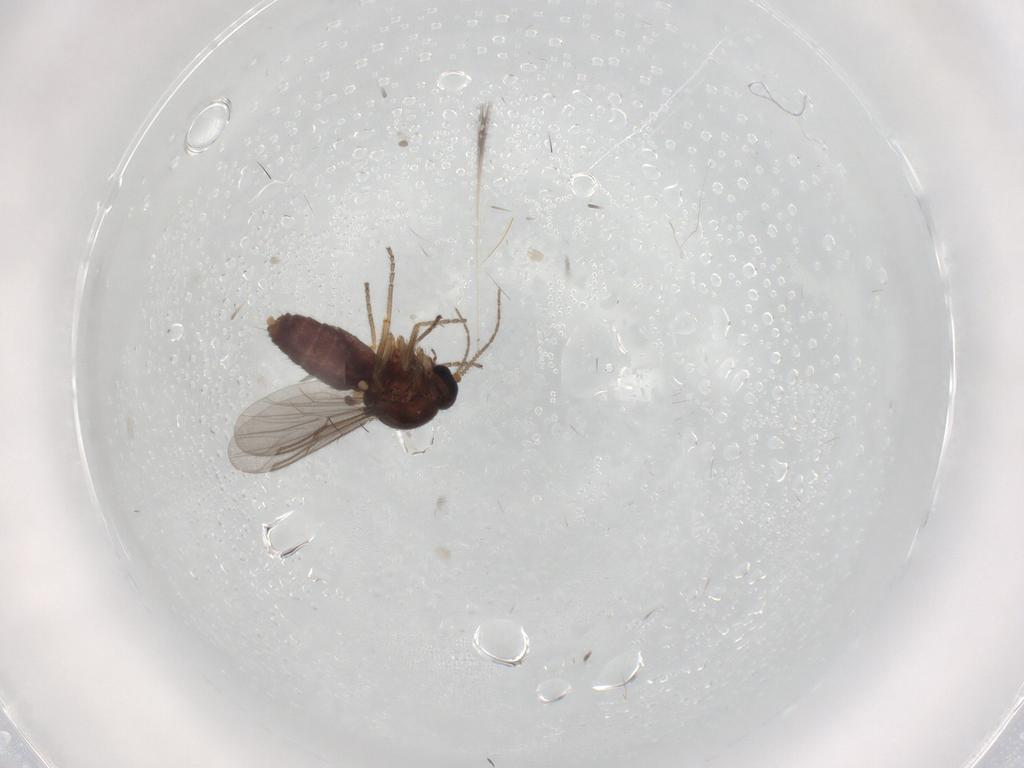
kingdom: Animalia
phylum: Arthropoda
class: Insecta
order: Diptera
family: Ceratopogonidae
